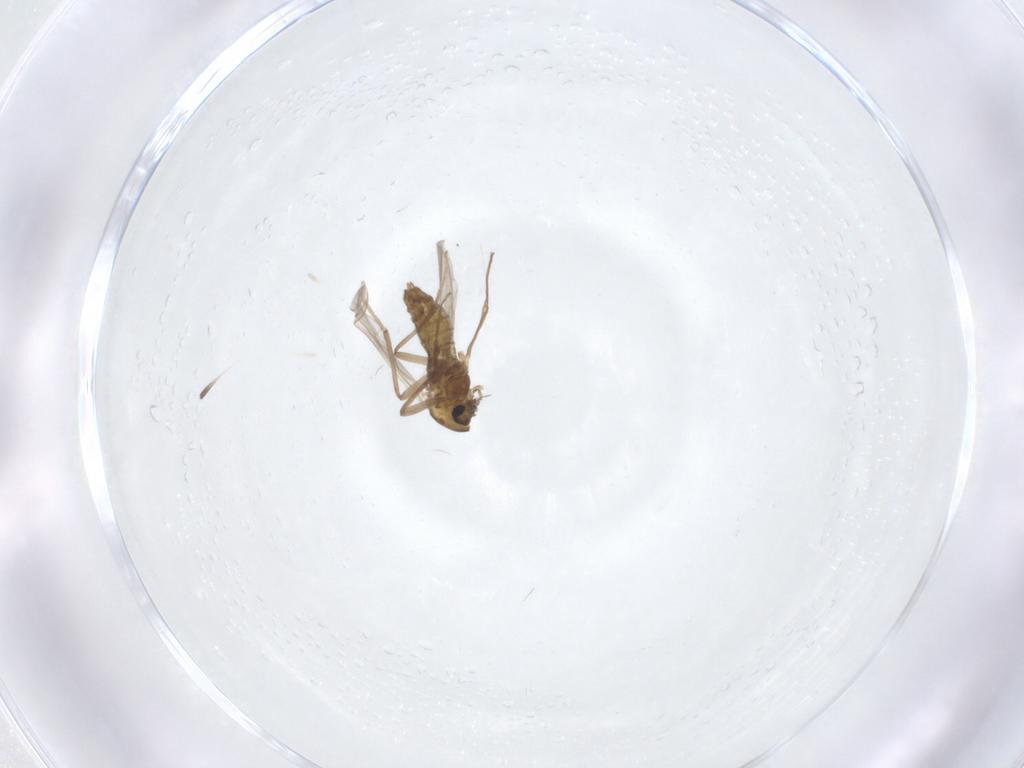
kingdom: Animalia
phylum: Arthropoda
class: Insecta
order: Diptera
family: Chironomidae
